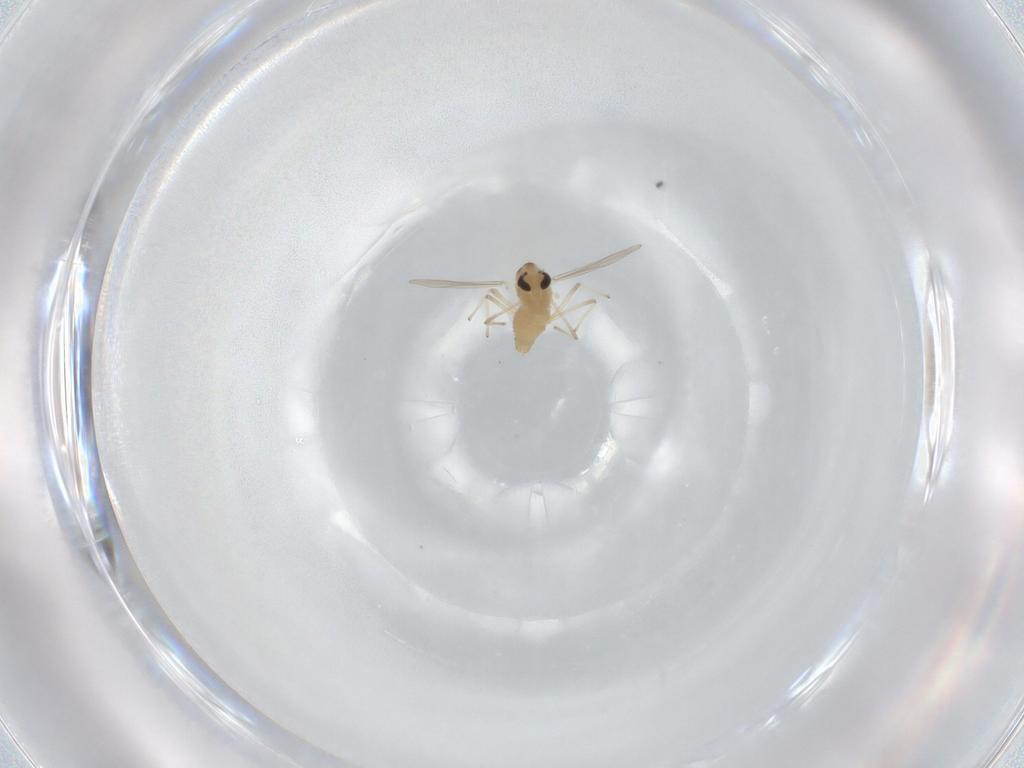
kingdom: Animalia
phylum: Arthropoda
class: Insecta
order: Diptera
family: Chironomidae
